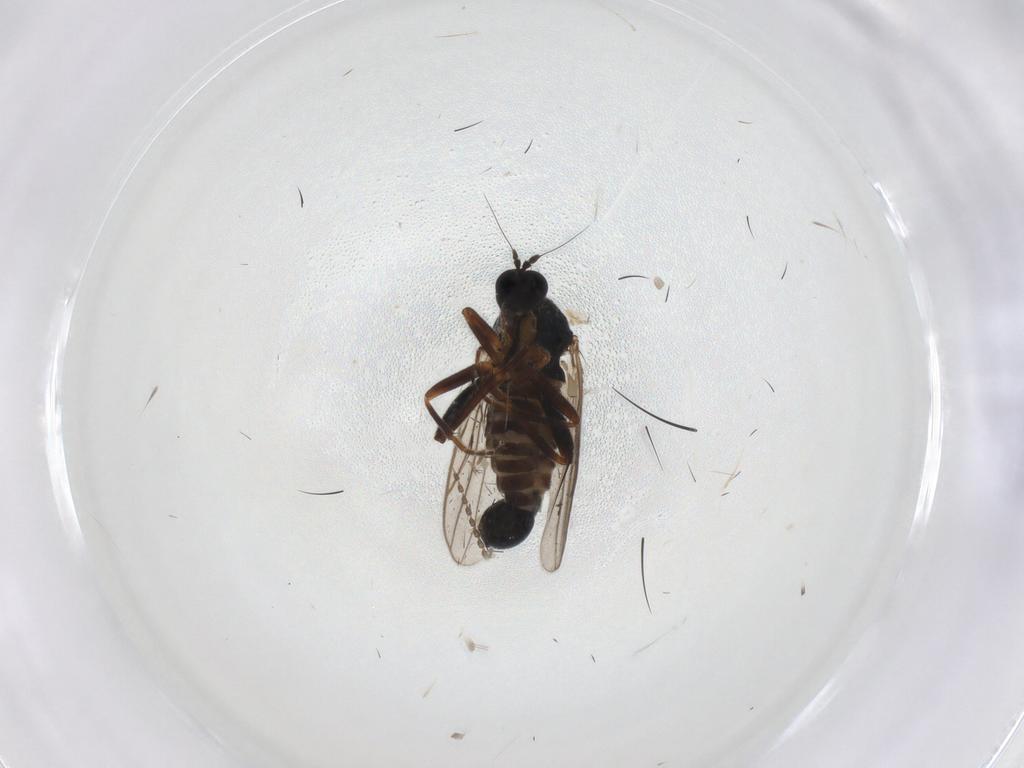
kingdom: Animalia
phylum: Arthropoda
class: Insecta
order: Diptera
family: Muscidae
